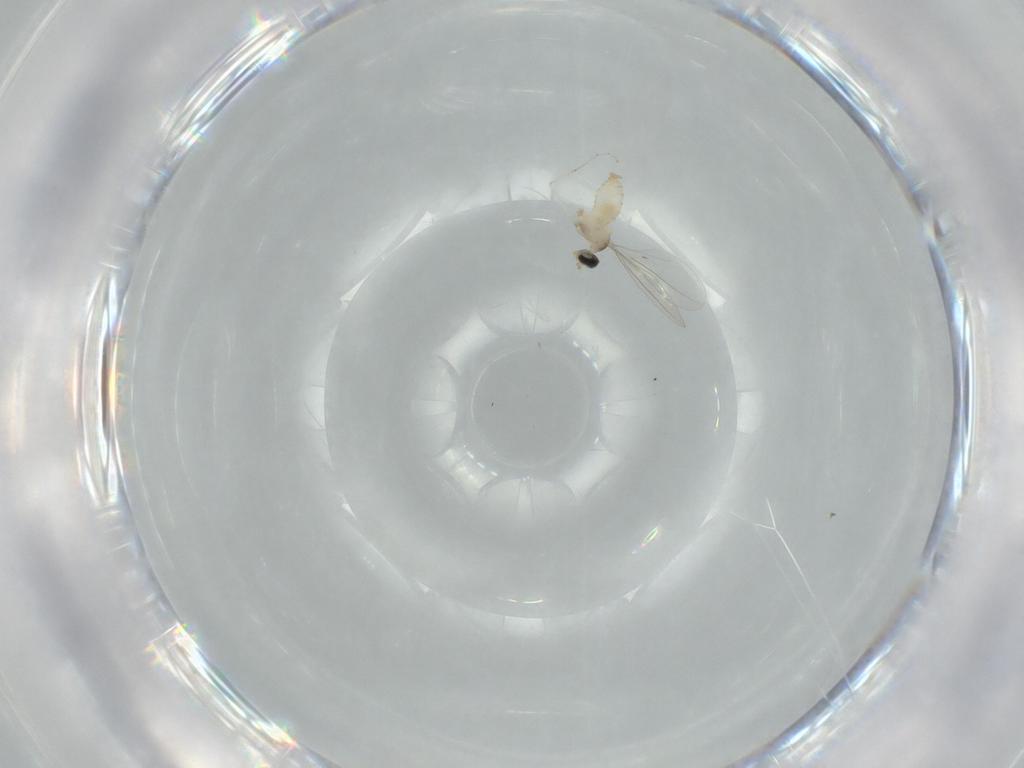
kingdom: Animalia
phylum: Arthropoda
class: Insecta
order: Diptera
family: Cecidomyiidae
